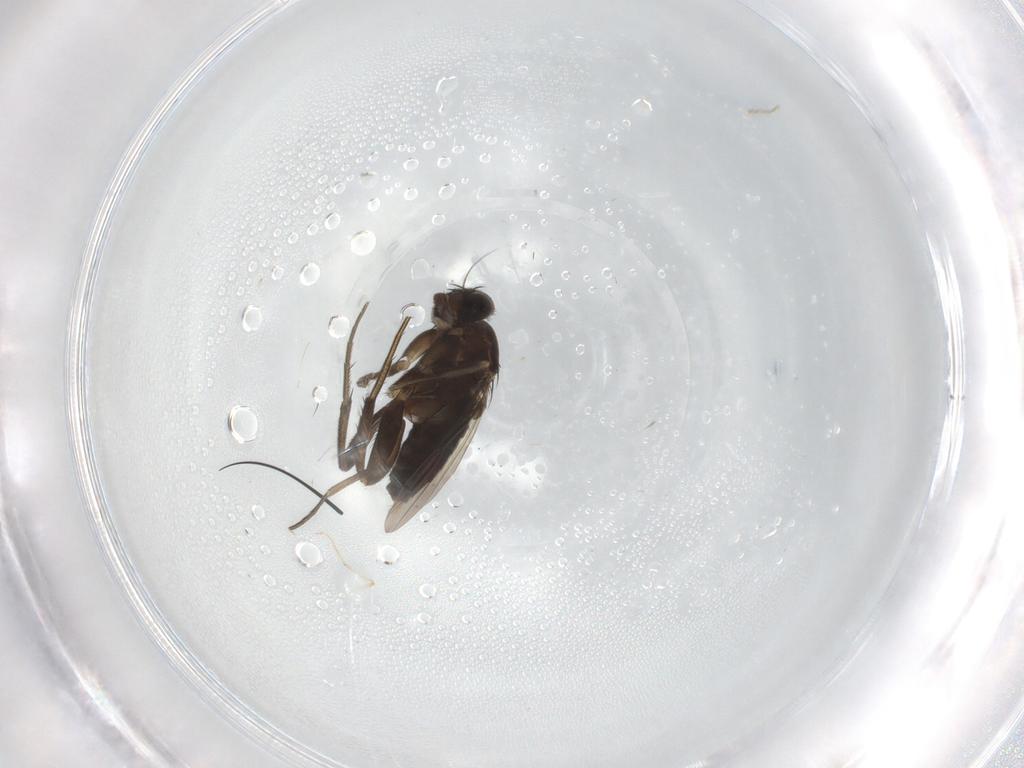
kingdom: Animalia
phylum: Arthropoda
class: Insecta
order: Diptera
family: Phoridae
